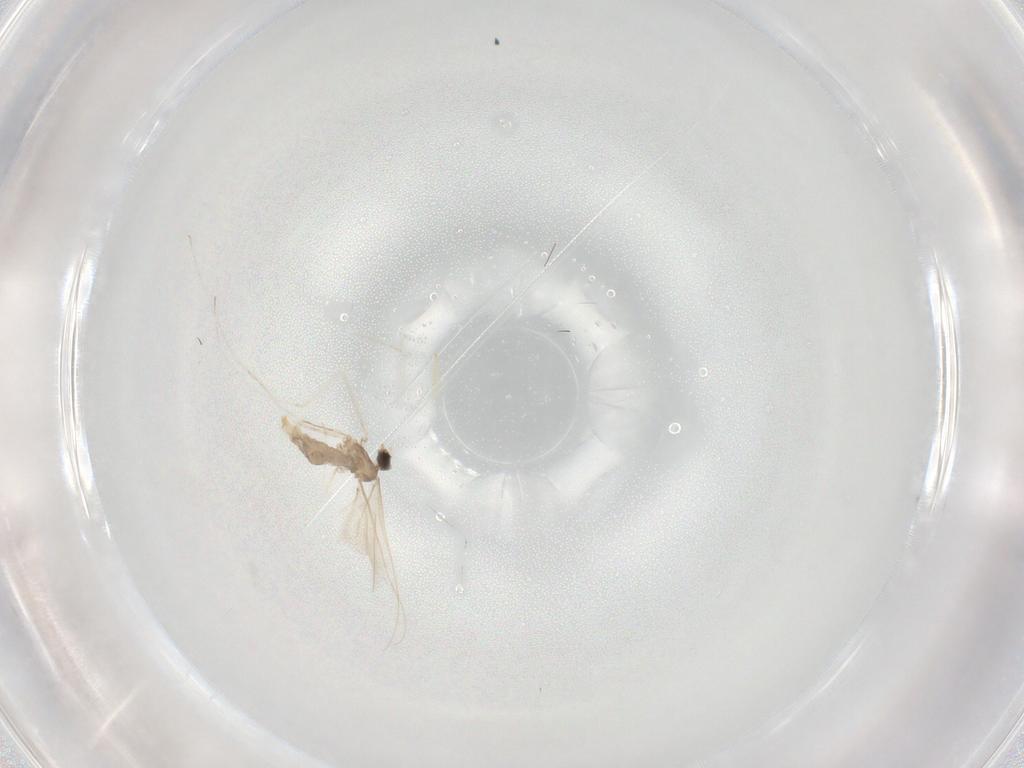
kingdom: Animalia
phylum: Arthropoda
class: Insecta
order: Diptera
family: Cecidomyiidae
